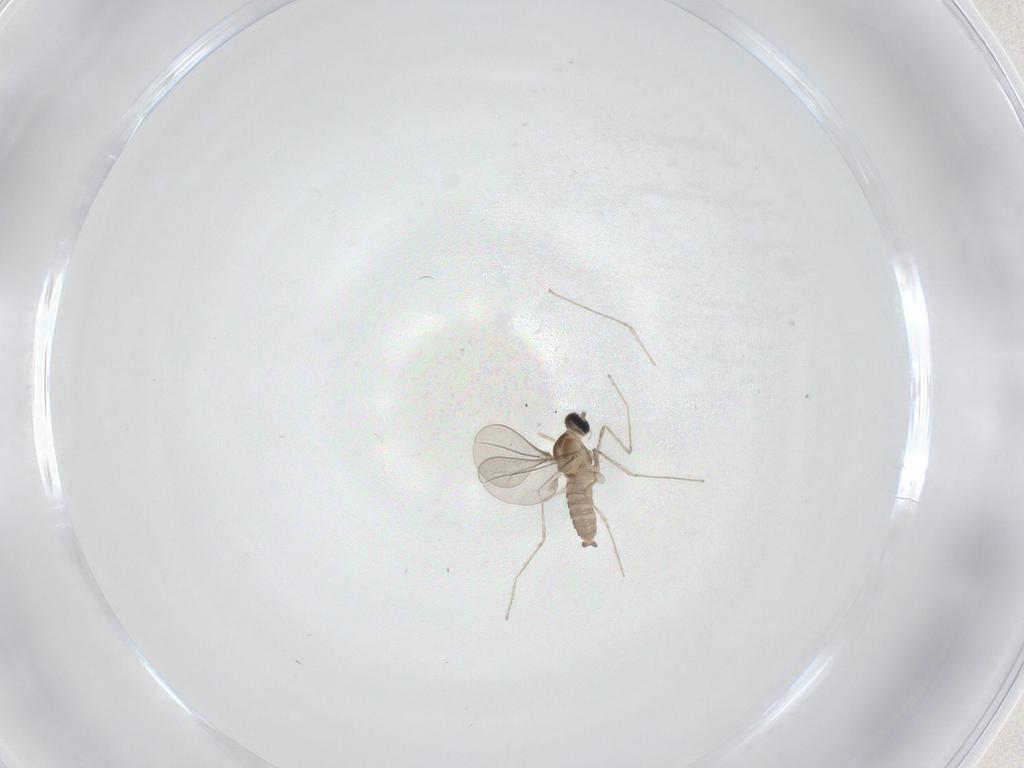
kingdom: Animalia
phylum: Arthropoda
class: Insecta
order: Diptera
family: Cecidomyiidae
